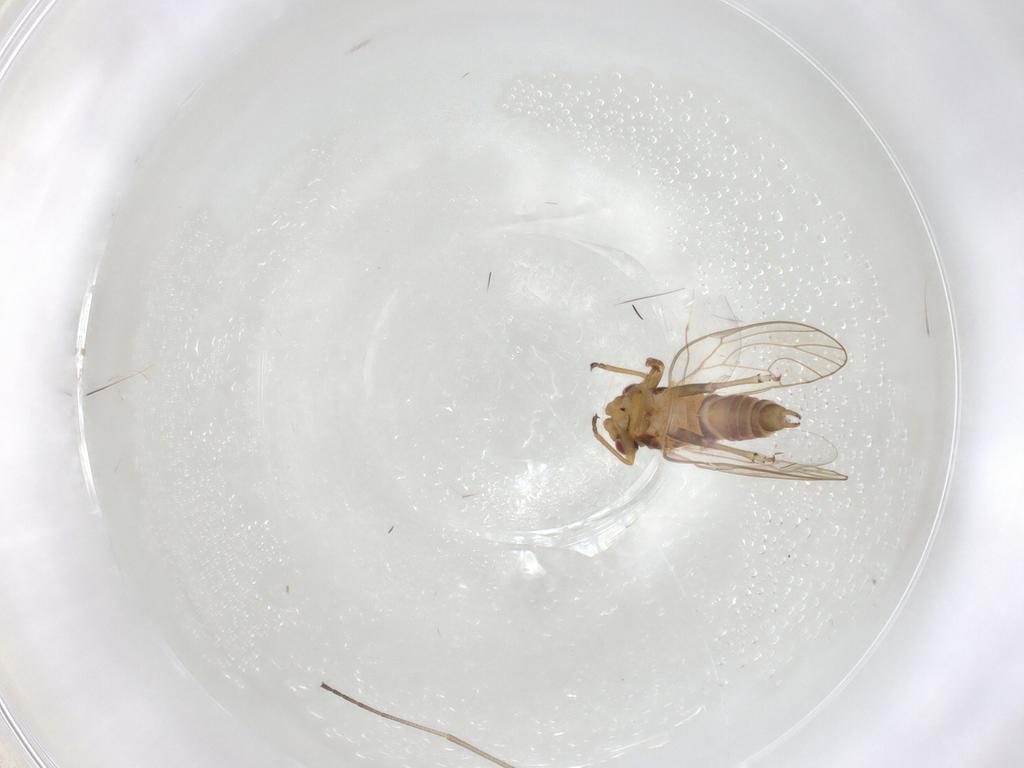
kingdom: Animalia
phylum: Arthropoda
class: Insecta
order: Hemiptera
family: Psyllidae
